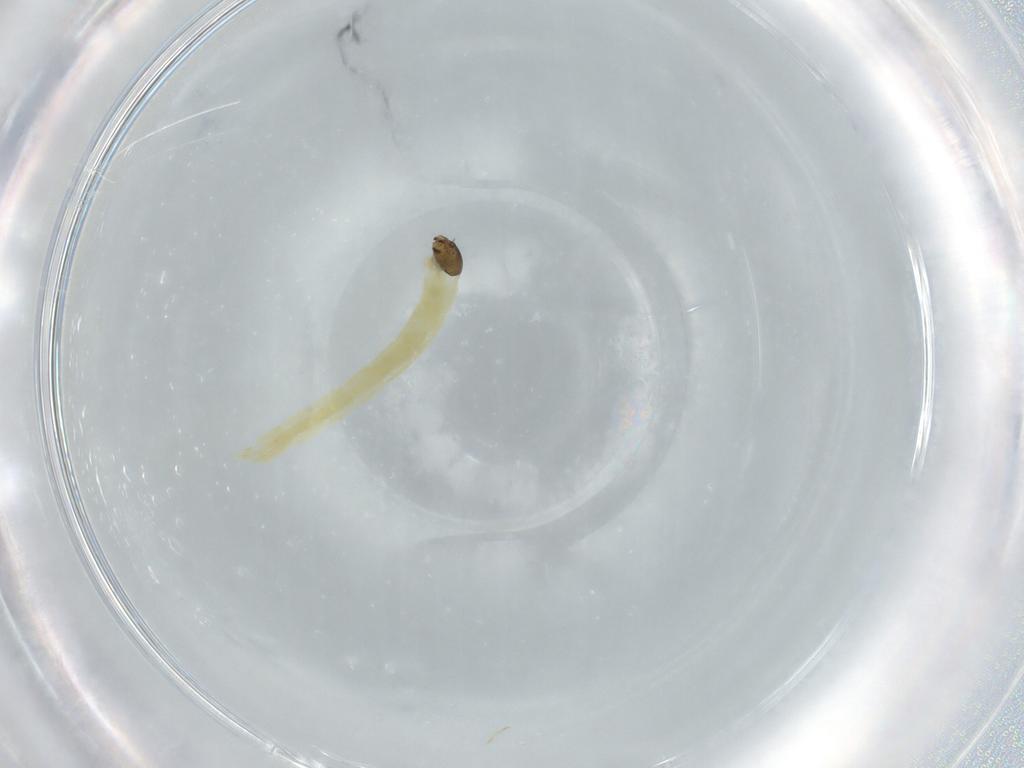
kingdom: Animalia
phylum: Arthropoda
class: Insecta
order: Diptera
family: Chironomidae
